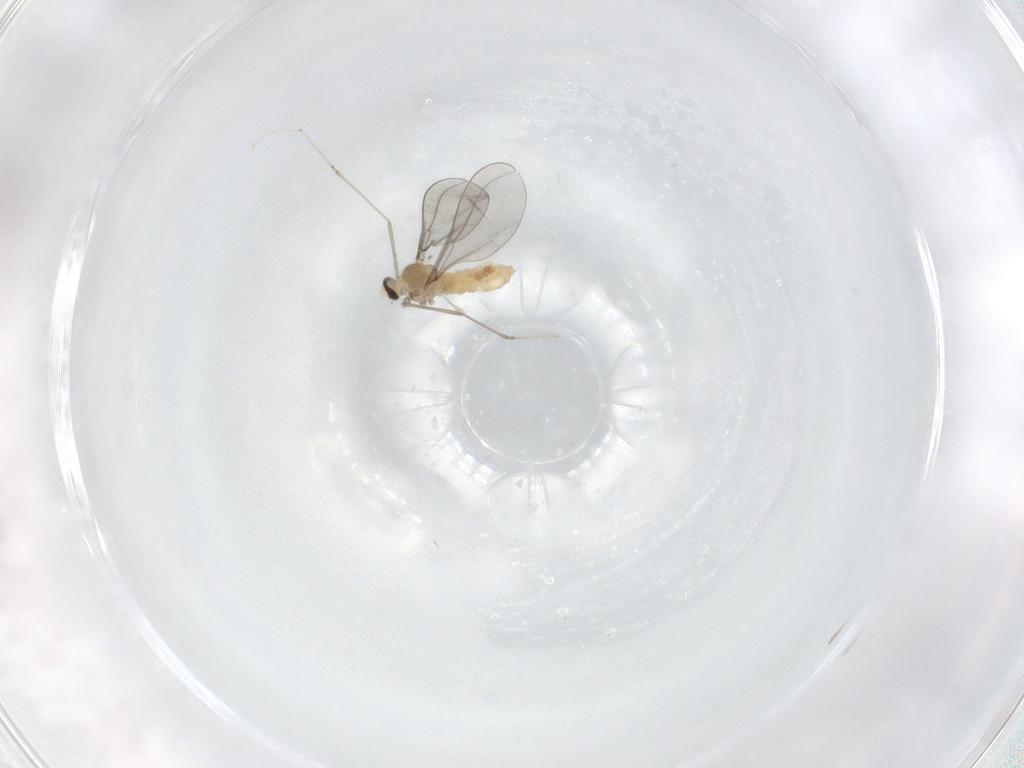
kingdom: Animalia
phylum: Arthropoda
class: Insecta
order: Diptera
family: Cecidomyiidae
